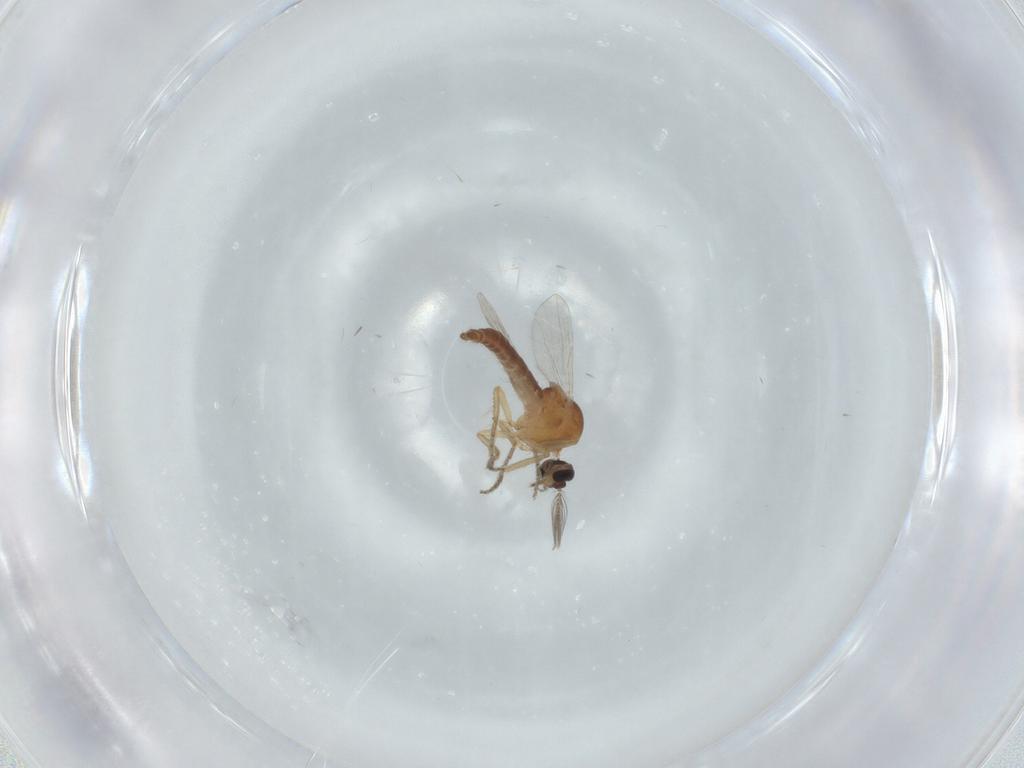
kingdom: Animalia
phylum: Arthropoda
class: Insecta
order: Diptera
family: Ceratopogonidae
